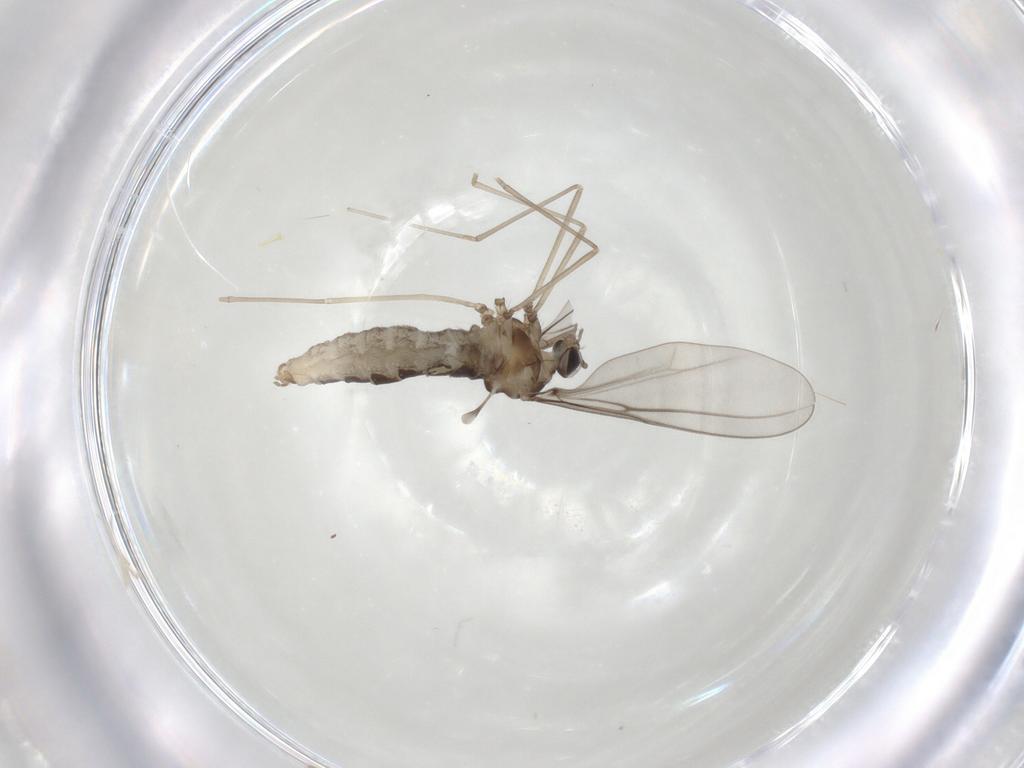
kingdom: Animalia
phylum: Arthropoda
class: Insecta
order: Diptera
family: Cecidomyiidae
